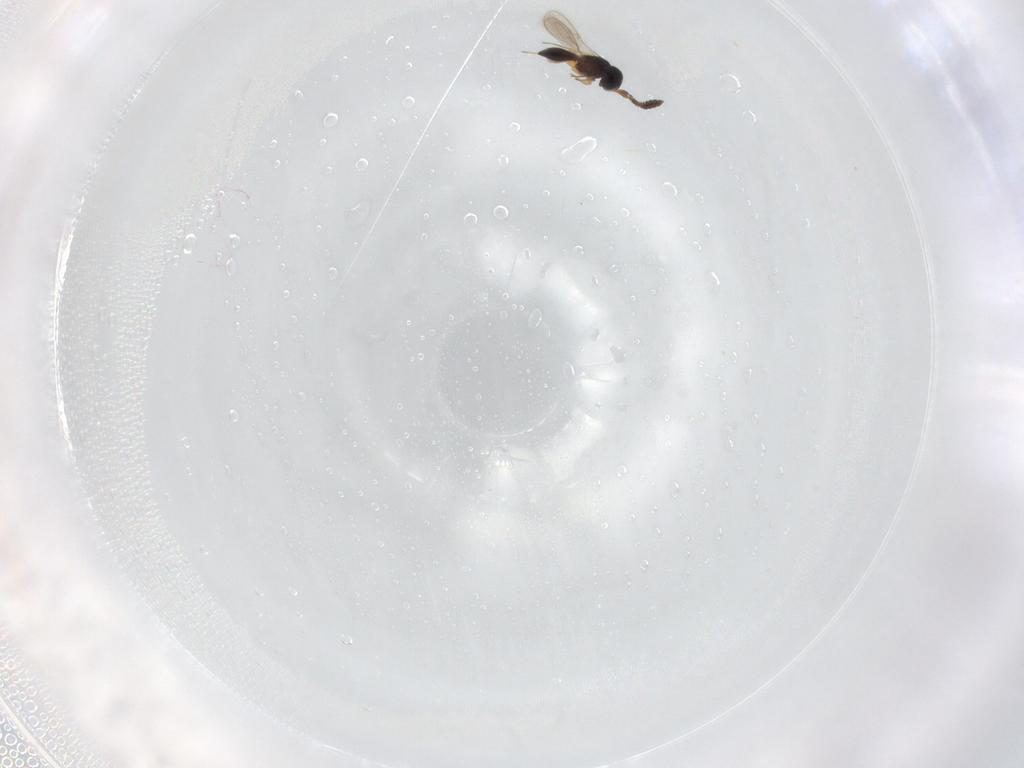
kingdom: Animalia
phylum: Arthropoda
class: Insecta
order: Hymenoptera
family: Scelionidae
